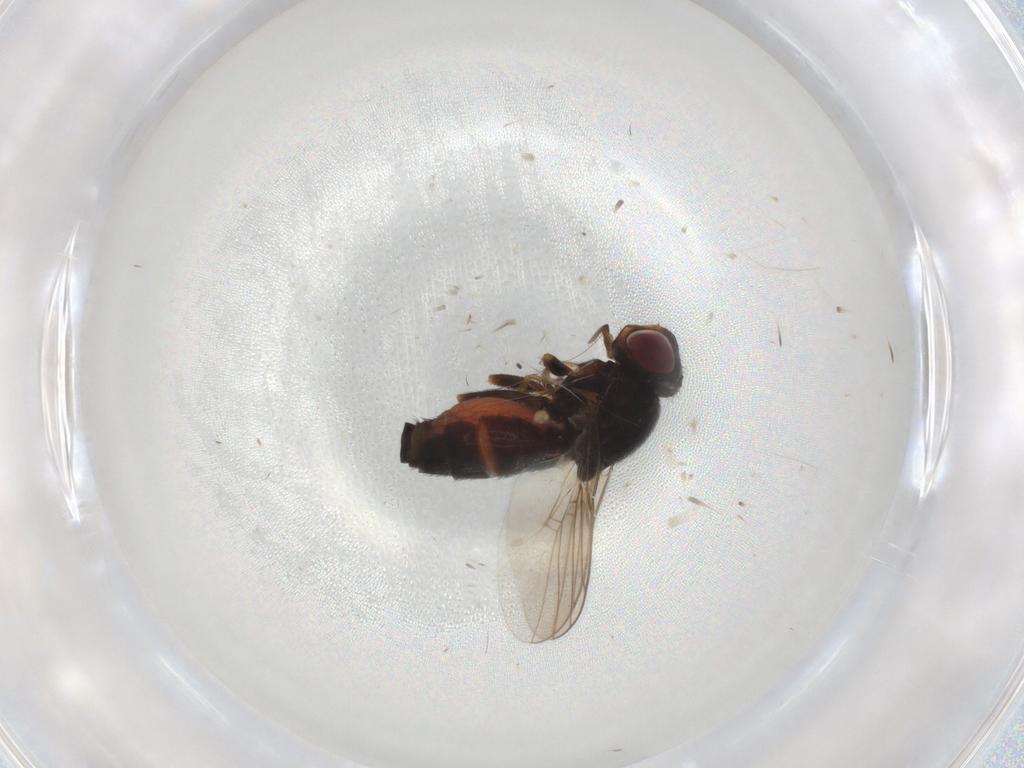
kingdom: Animalia
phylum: Arthropoda
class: Insecta
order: Diptera
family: Chloropidae
